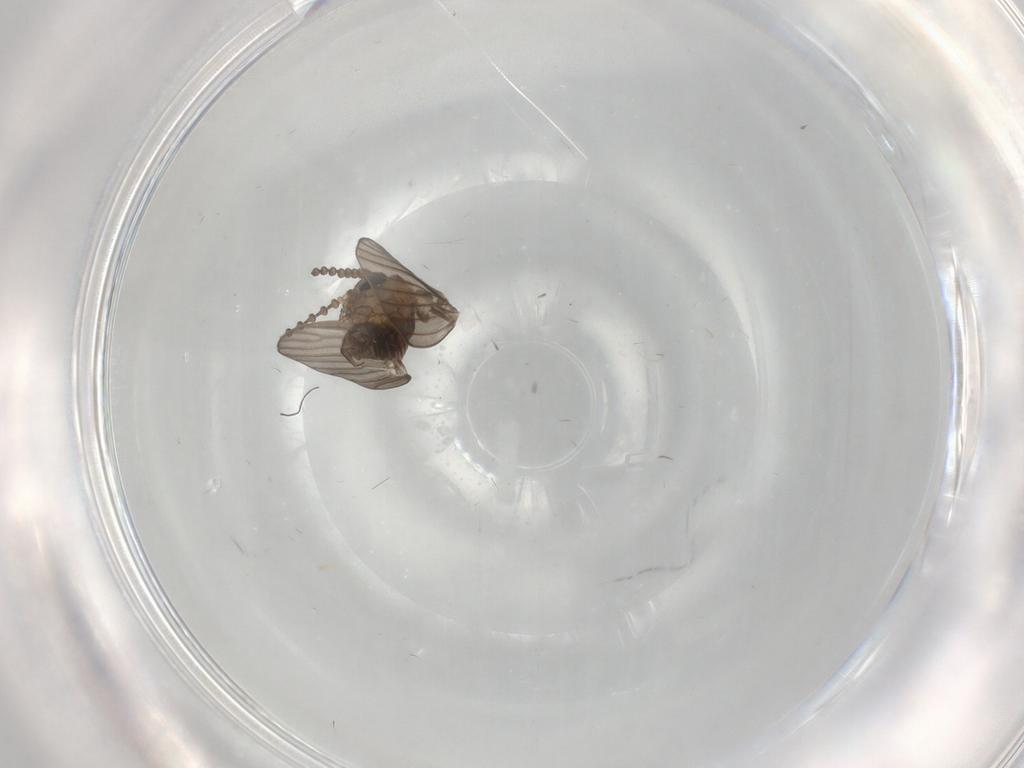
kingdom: Animalia
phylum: Arthropoda
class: Insecta
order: Diptera
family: Psychodidae
